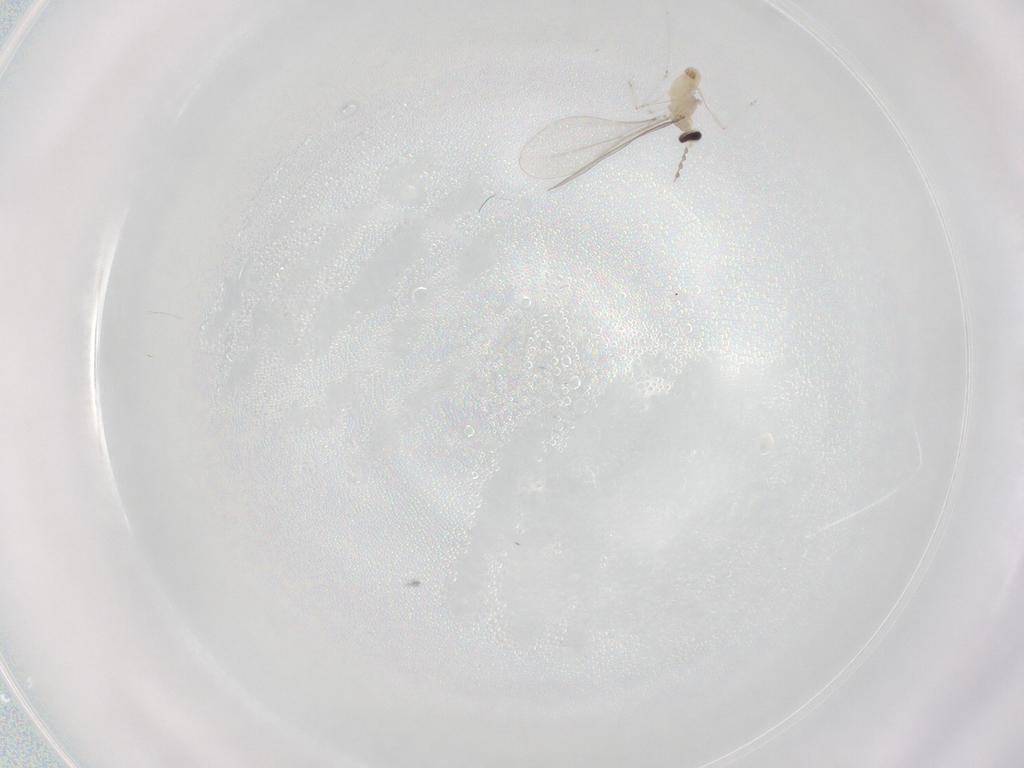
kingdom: Animalia
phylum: Arthropoda
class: Insecta
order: Diptera
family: Cecidomyiidae
